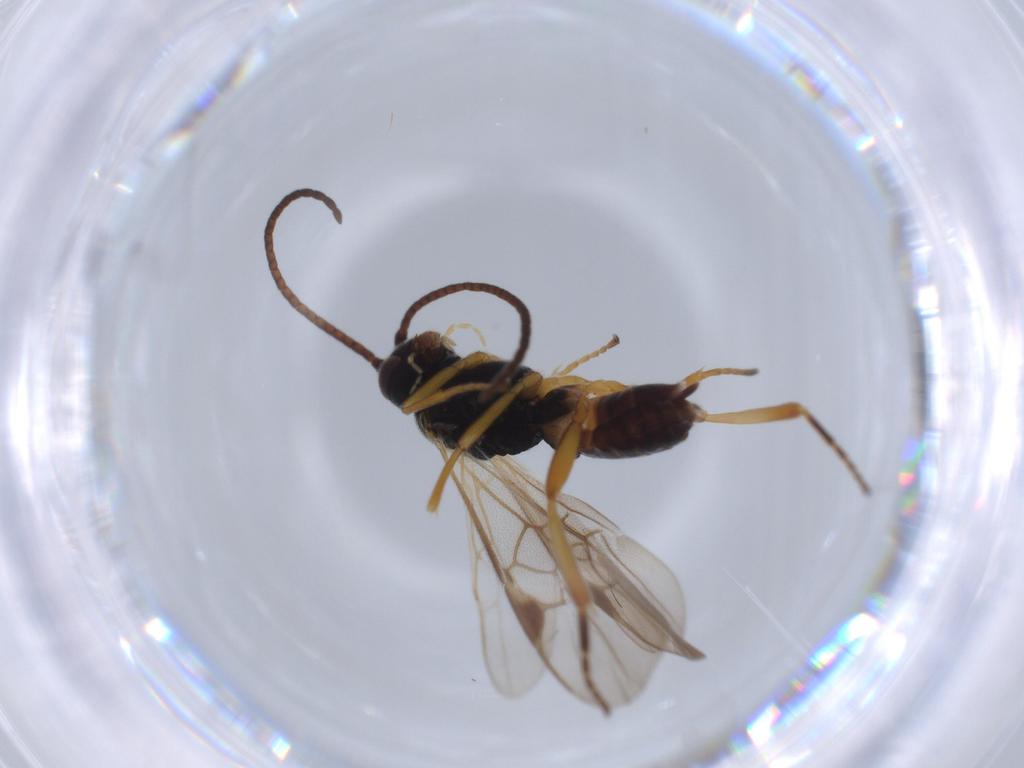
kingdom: Animalia
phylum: Arthropoda
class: Insecta
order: Hymenoptera
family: Braconidae
